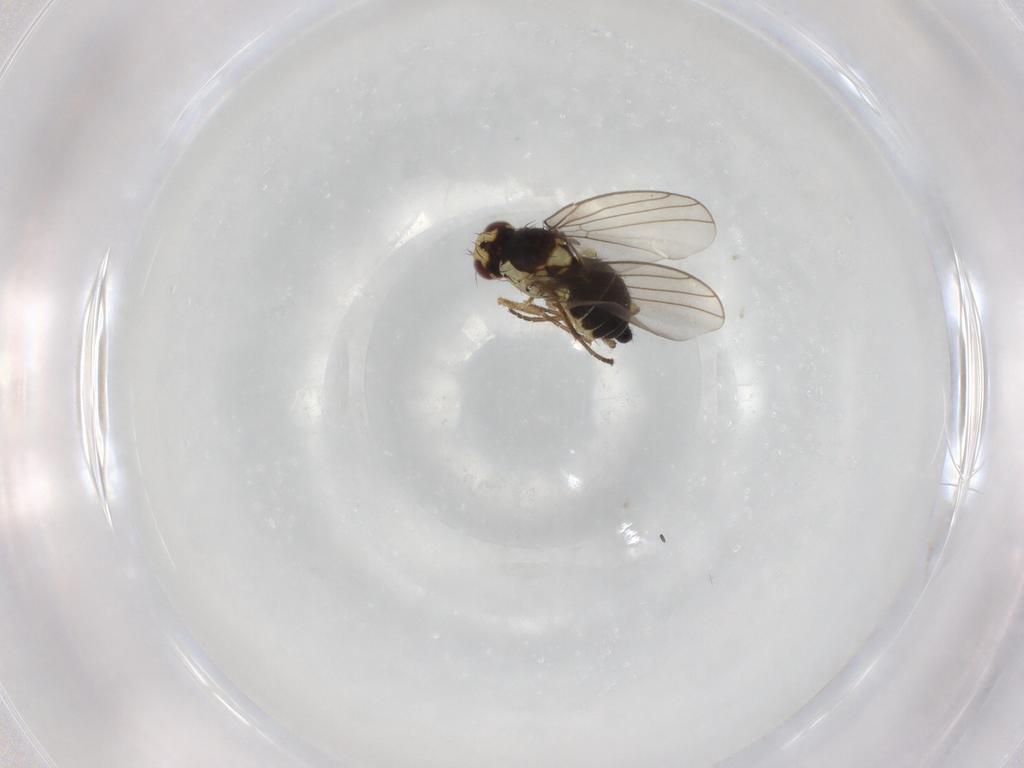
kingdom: Animalia
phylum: Arthropoda
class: Insecta
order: Diptera
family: Agromyzidae
